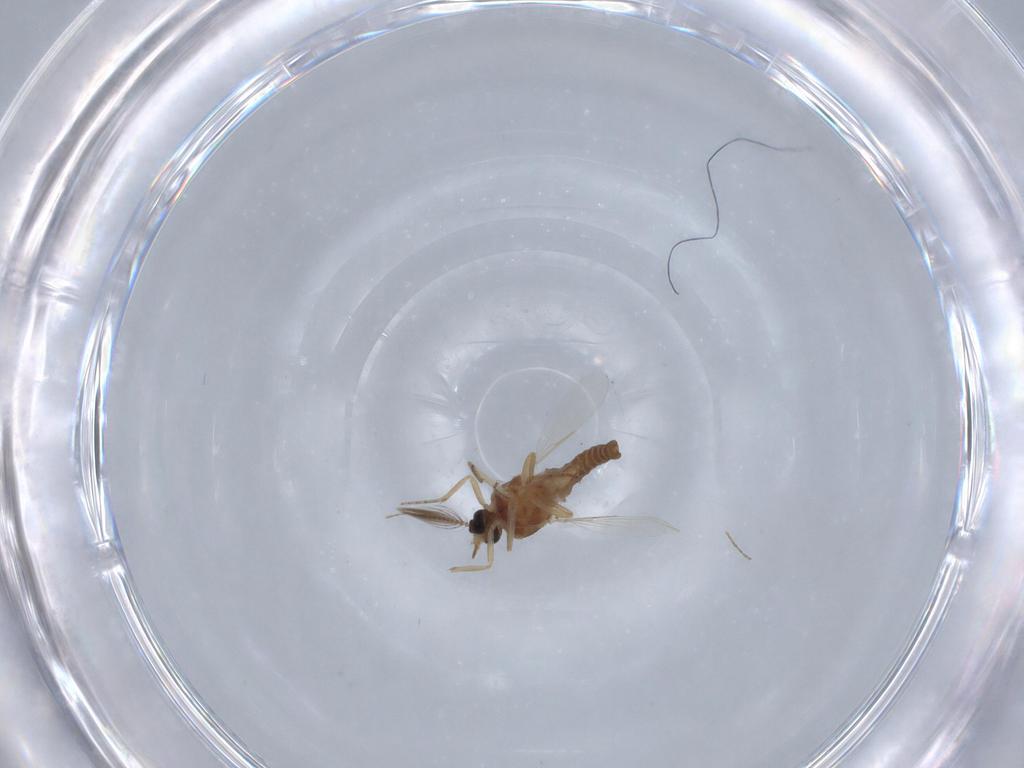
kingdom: Animalia
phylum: Arthropoda
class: Insecta
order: Diptera
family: Ceratopogonidae
